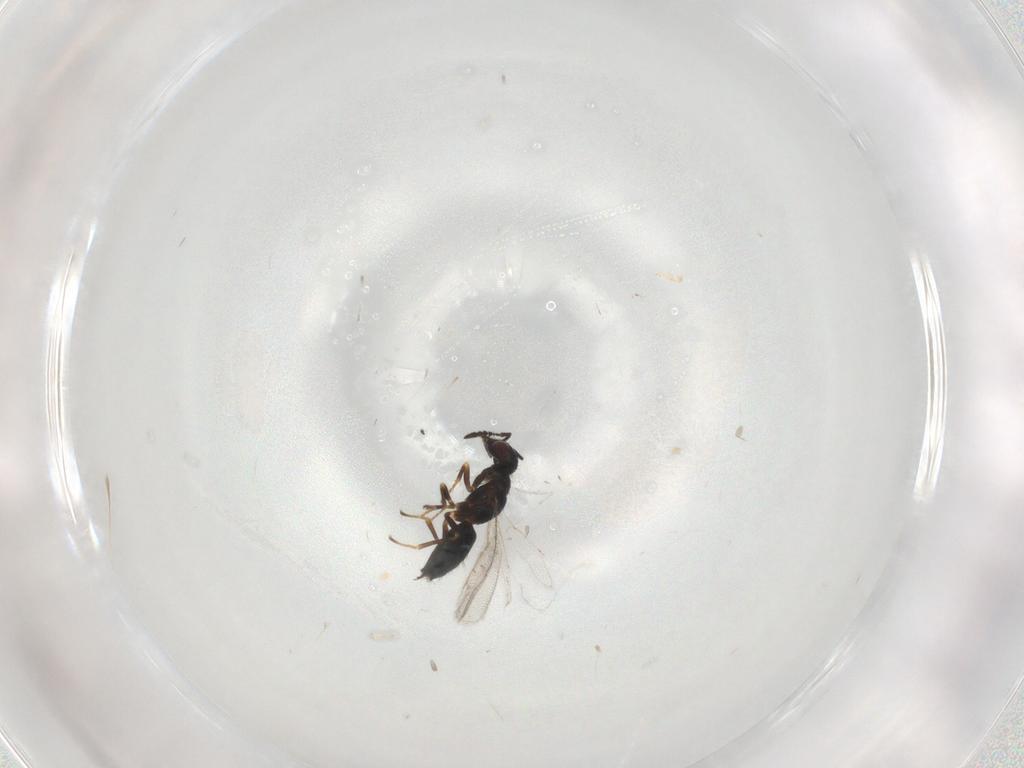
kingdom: Animalia
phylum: Arthropoda
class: Insecta
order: Hymenoptera
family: Pirenidae
